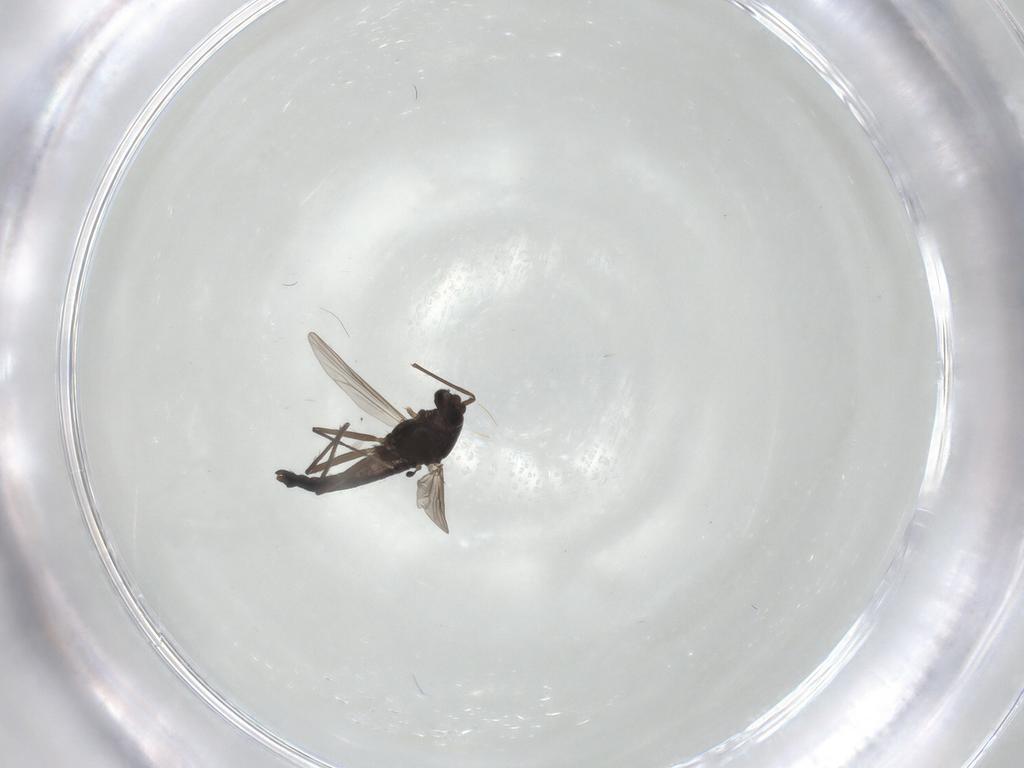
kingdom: Animalia
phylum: Arthropoda
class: Insecta
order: Diptera
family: Chironomidae
